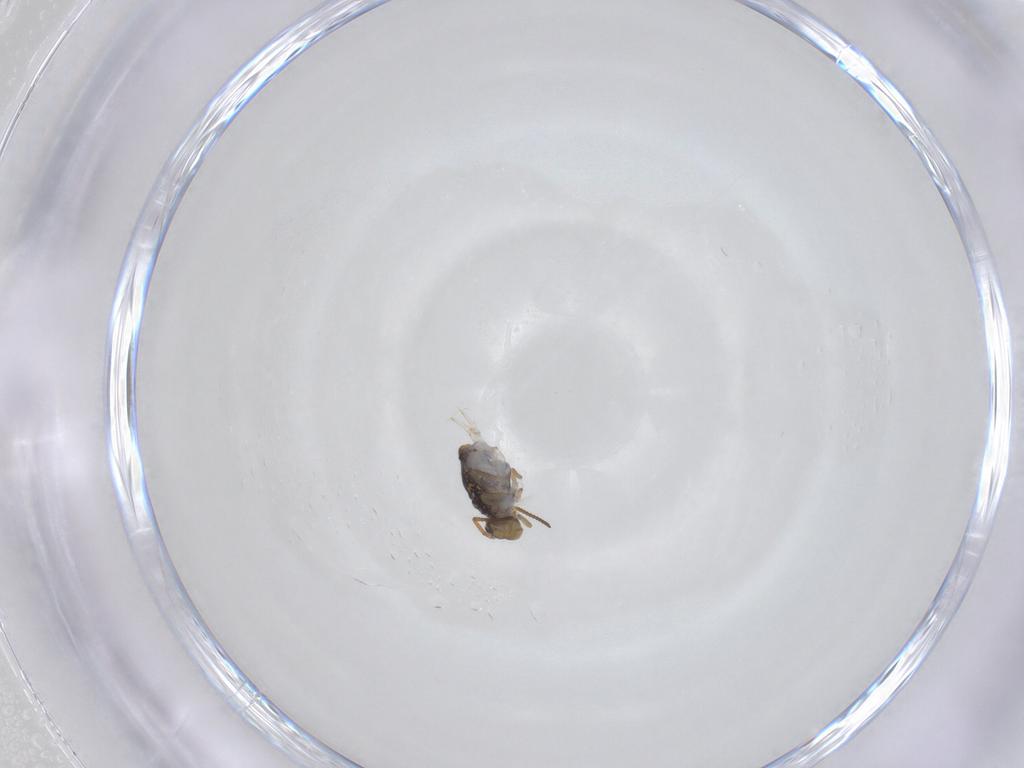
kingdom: Animalia
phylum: Arthropoda
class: Collembola
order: Symphypleona
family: Katiannidae
